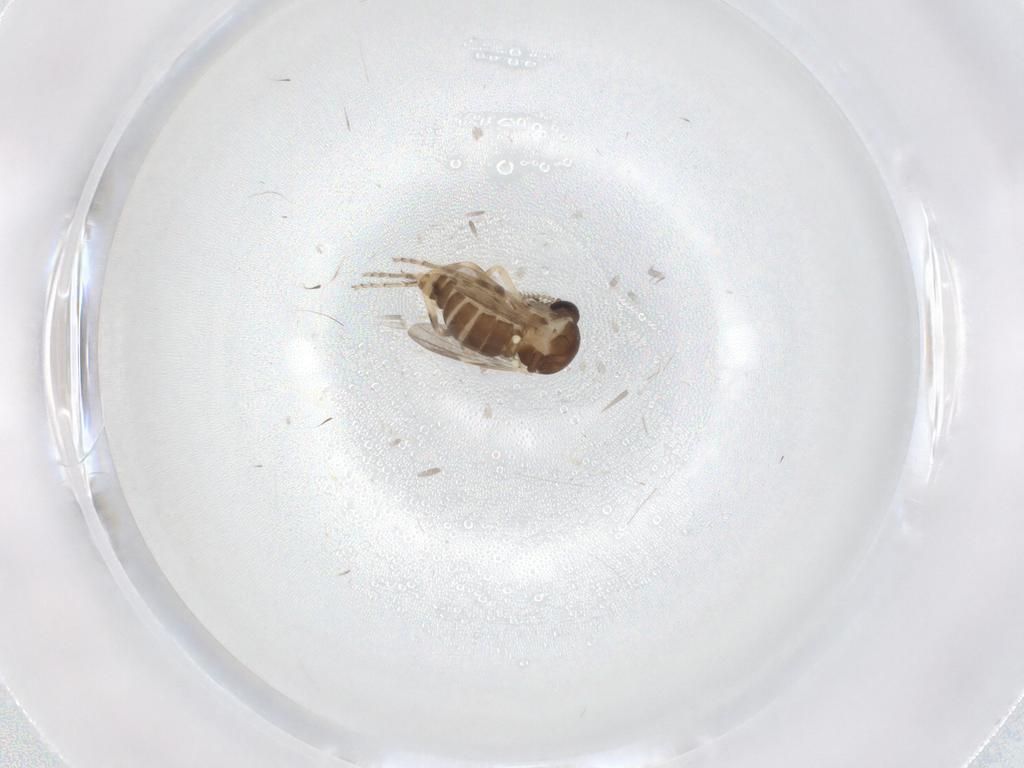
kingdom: Animalia
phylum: Arthropoda
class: Insecta
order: Diptera
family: Ceratopogonidae
